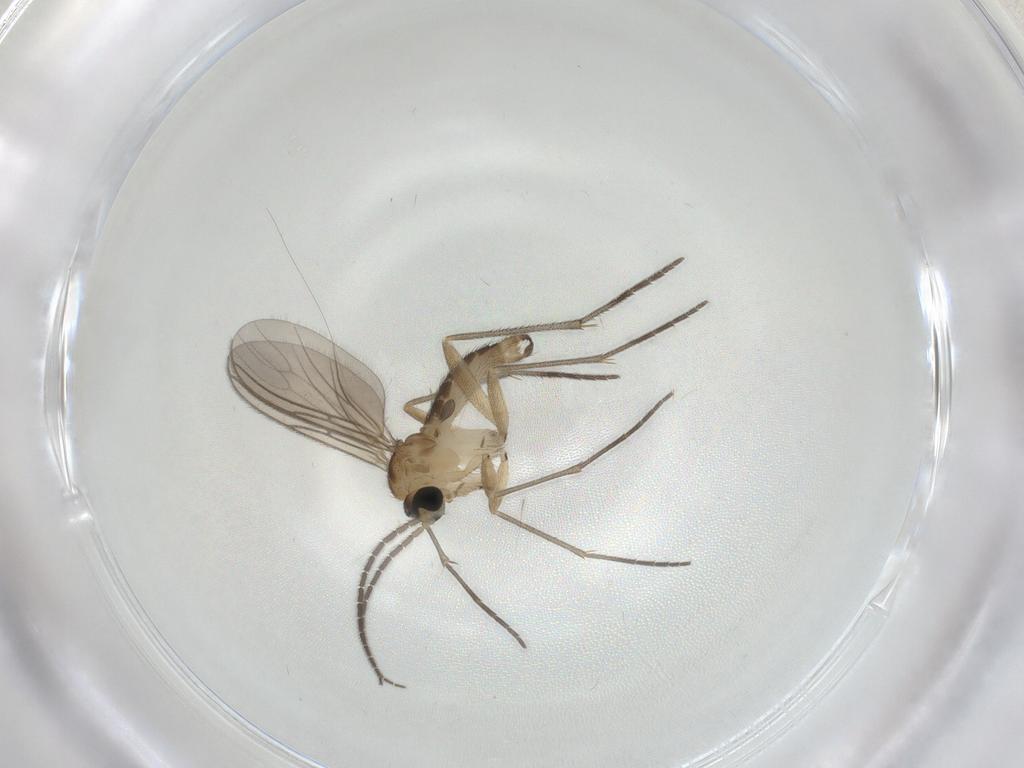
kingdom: Animalia
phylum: Arthropoda
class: Insecta
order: Diptera
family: Sciaridae
